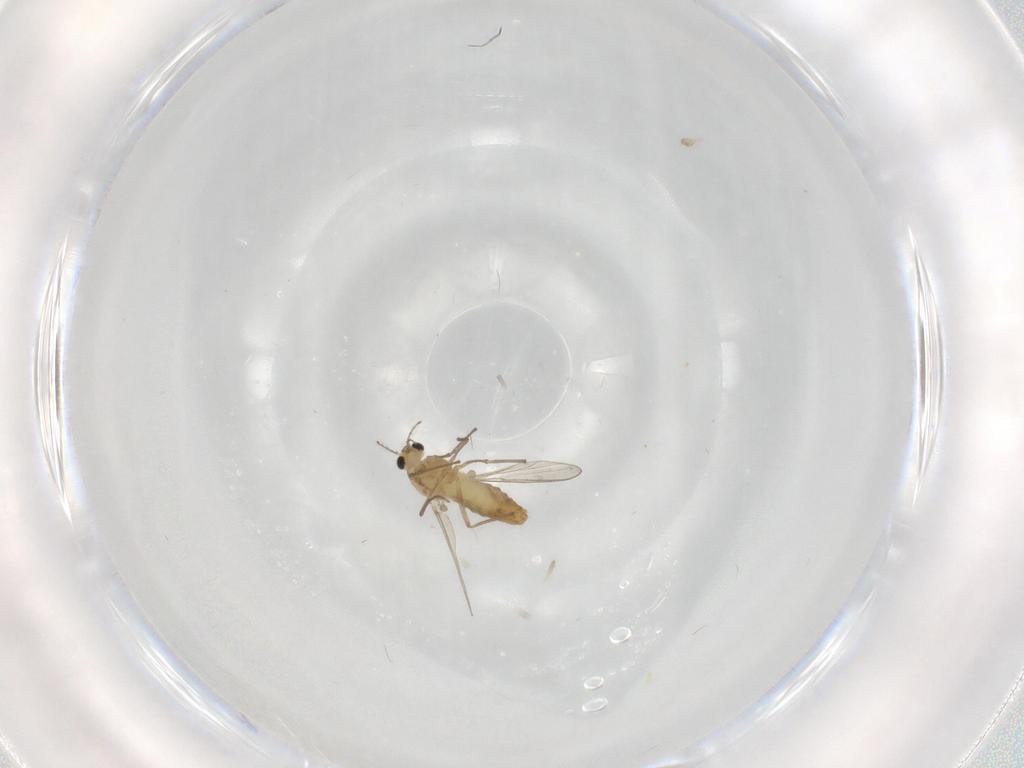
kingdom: Animalia
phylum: Arthropoda
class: Insecta
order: Diptera
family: Chironomidae
